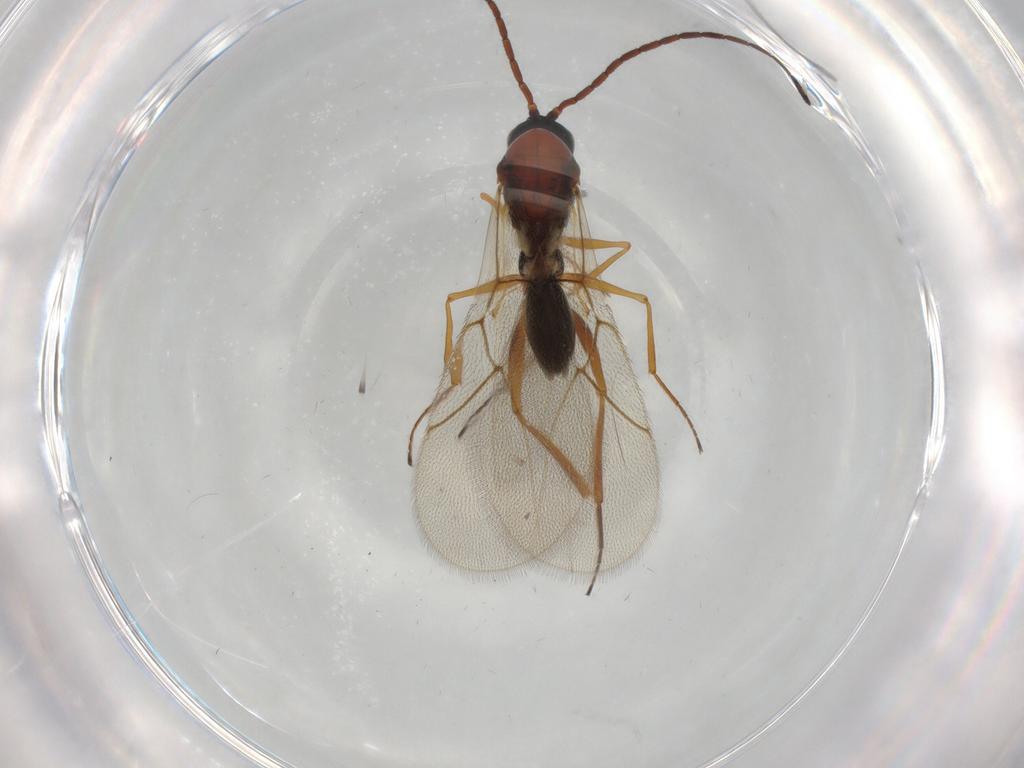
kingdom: Animalia
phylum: Arthropoda
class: Insecta
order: Hymenoptera
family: Figitidae
